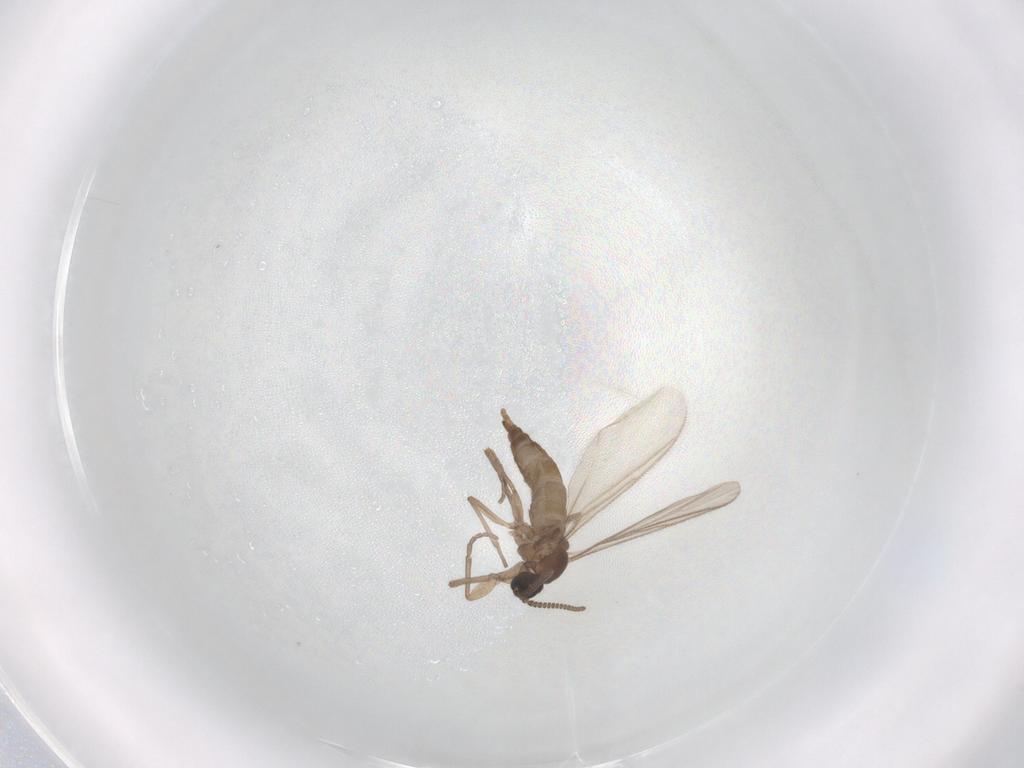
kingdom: Animalia
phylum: Arthropoda
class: Insecta
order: Diptera
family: Sciaridae
